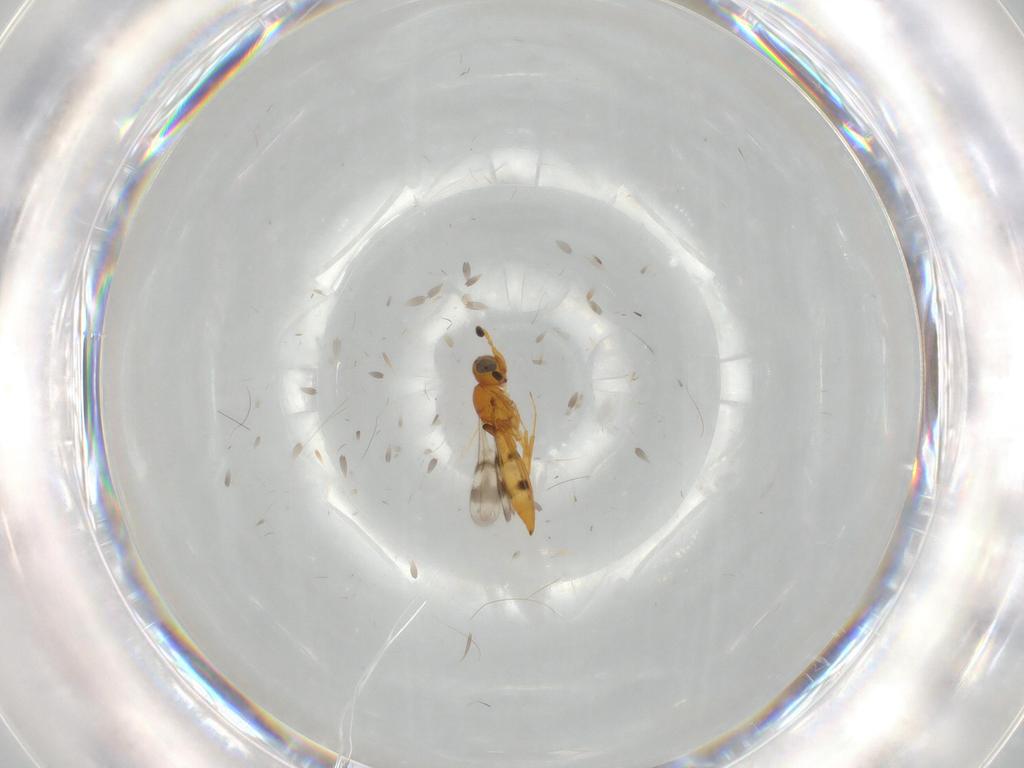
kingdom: Animalia
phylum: Arthropoda
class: Insecta
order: Hymenoptera
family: Scelionidae
